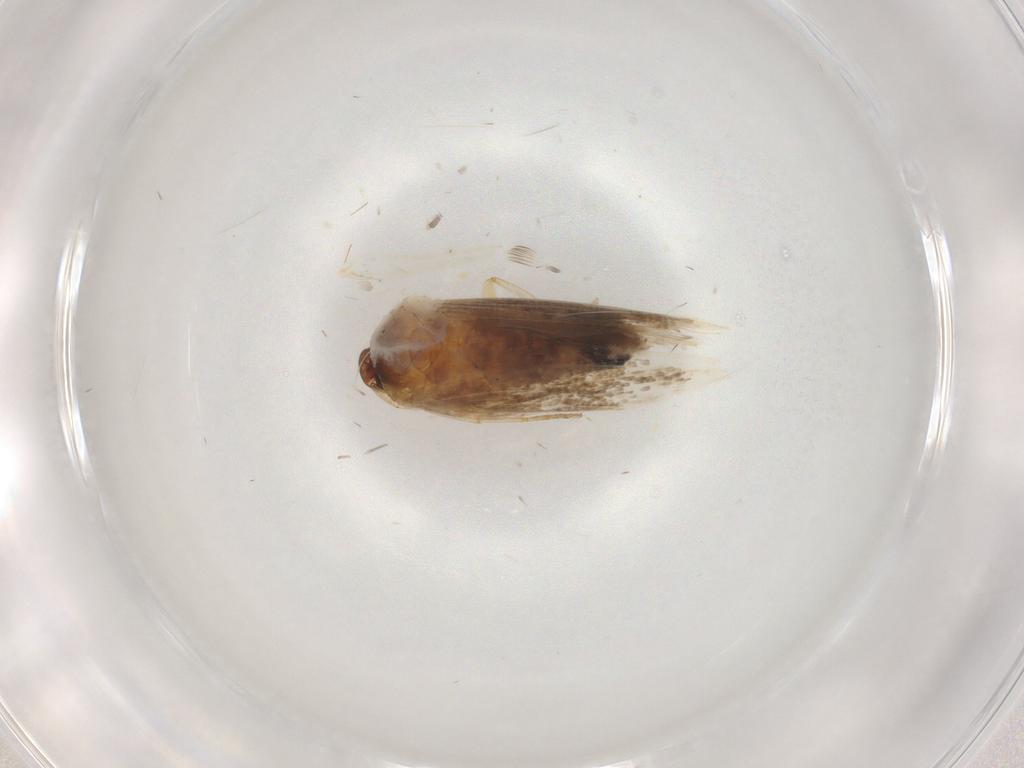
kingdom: Animalia
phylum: Arthropoda
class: Insecta
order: Lepidoptera
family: Cosmopterigidae
